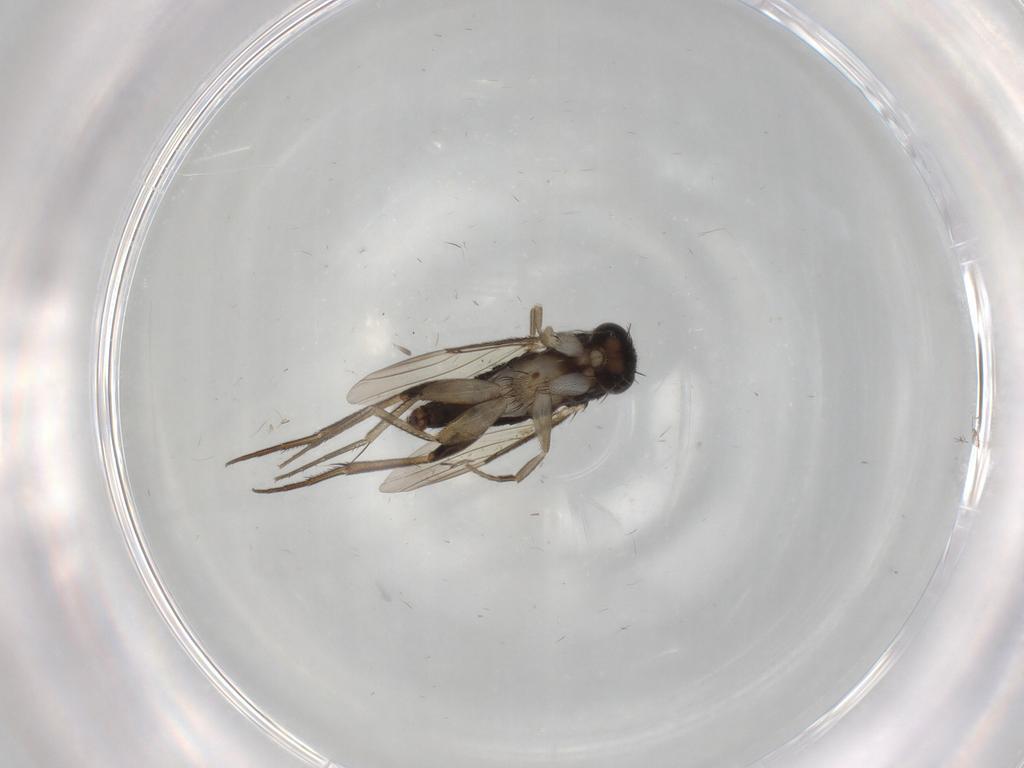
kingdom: Animalia
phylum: Arthropoda
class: Insecta
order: Diptera
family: Phoridae
